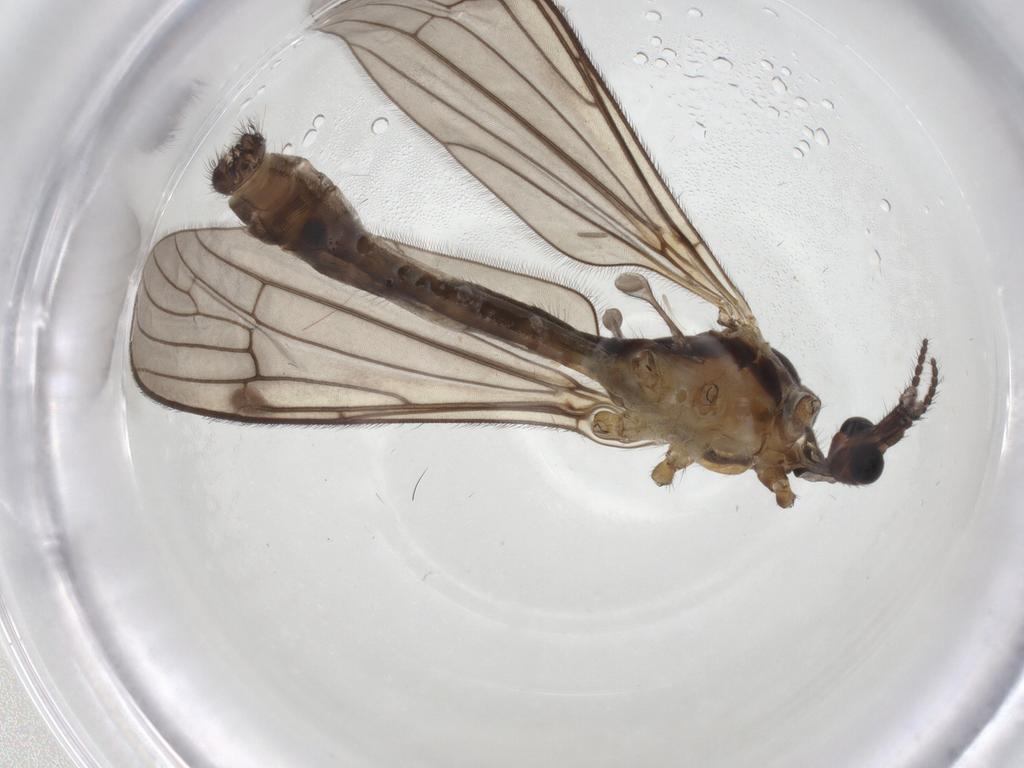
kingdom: Animalia
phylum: Arthropoda
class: Insecta
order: Diptera
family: Limoniidae
